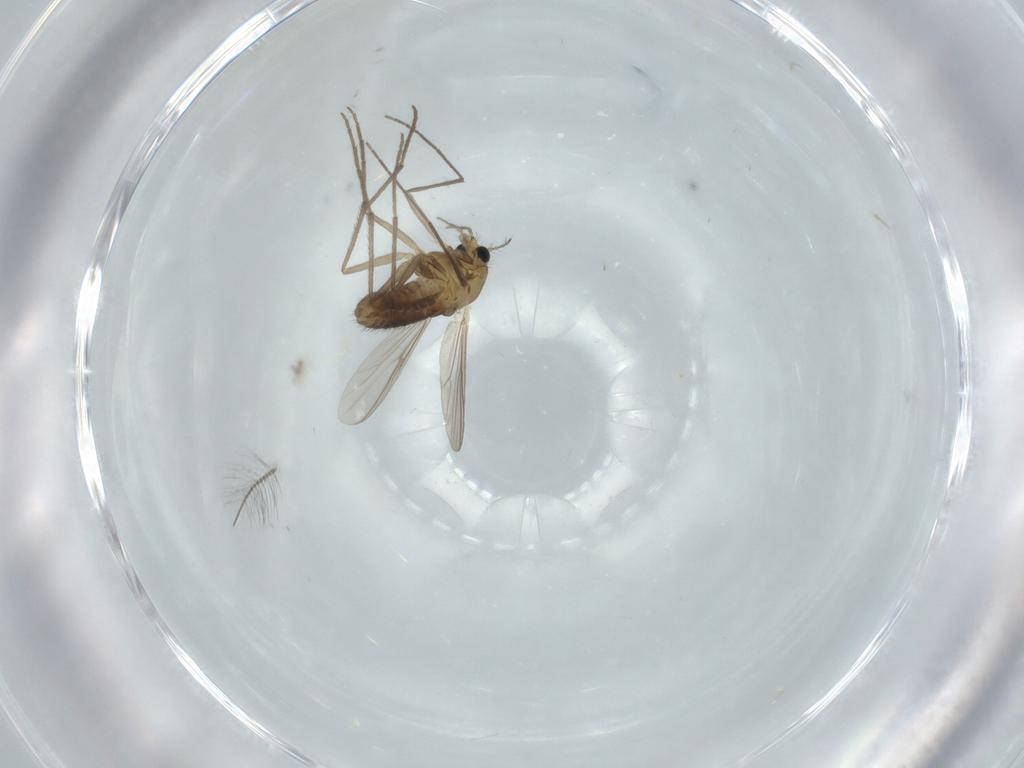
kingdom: Animalia
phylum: Arthropoda
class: Insecta
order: Diptera
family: Chironomidae
